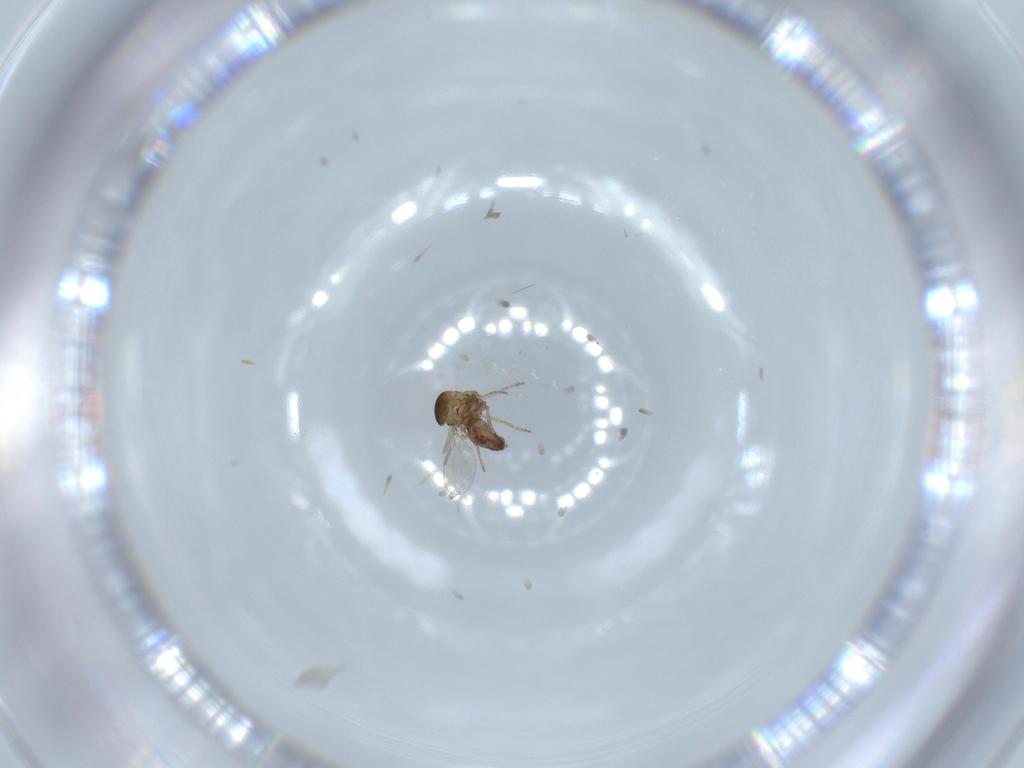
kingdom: Animalia
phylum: Arthropoda
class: Insecta
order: Diptera
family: Ceratopogonidae
